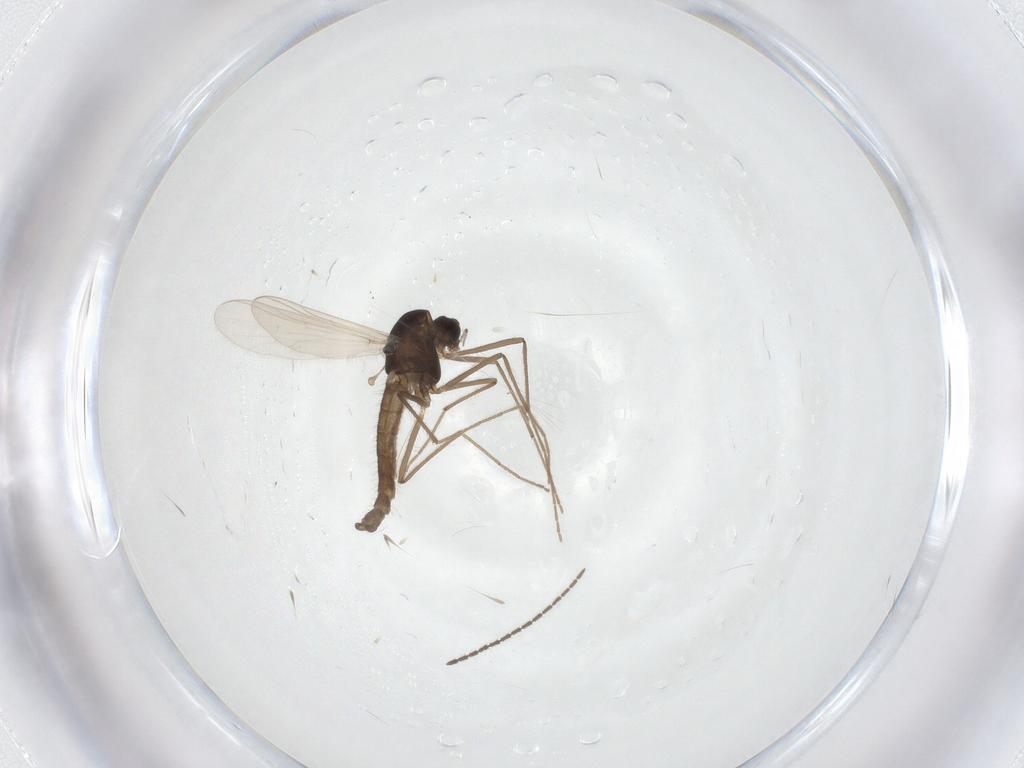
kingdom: Animalia
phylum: Arthropoda
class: Insecta
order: Diptera
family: Chironomidae
